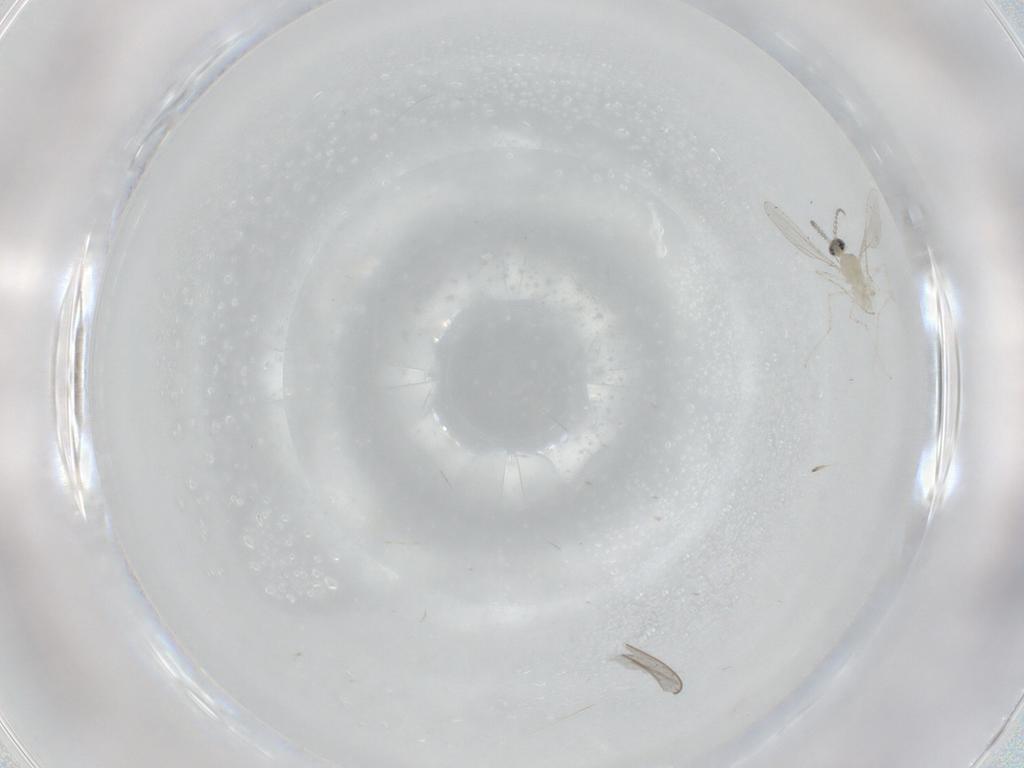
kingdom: Animalia
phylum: Arthropoda
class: Insecta
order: Diptera
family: Cecidomyiidae
